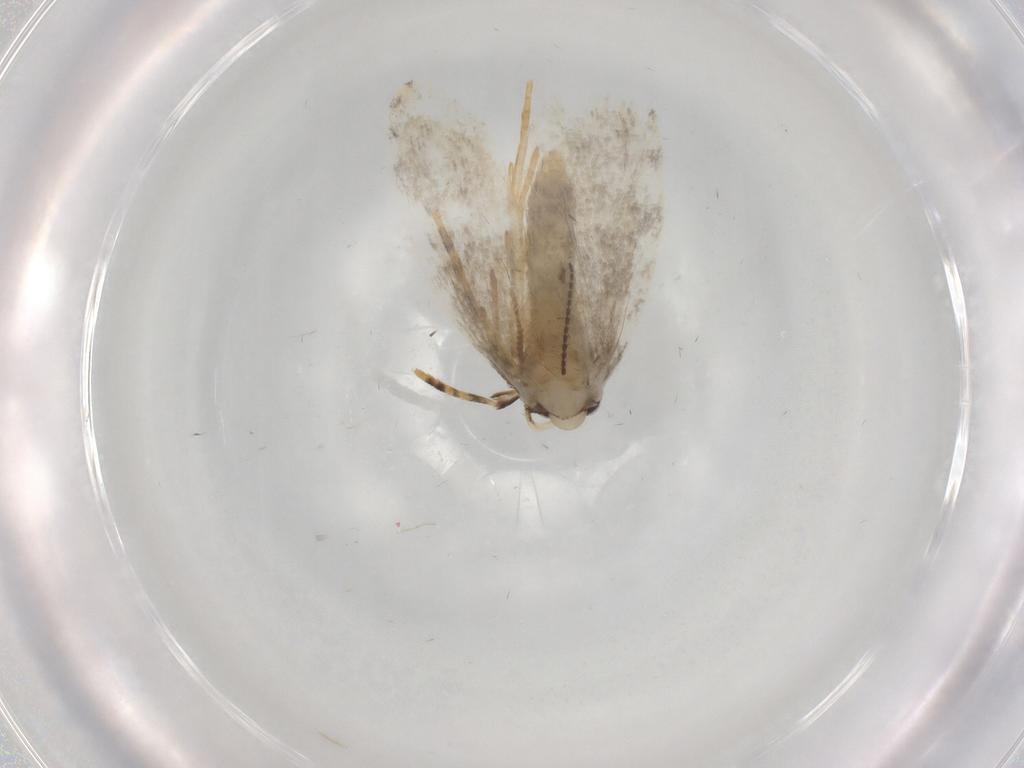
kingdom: Animalia
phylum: Arthropoda
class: Insecta
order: Lepidoptera
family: Psychidae
